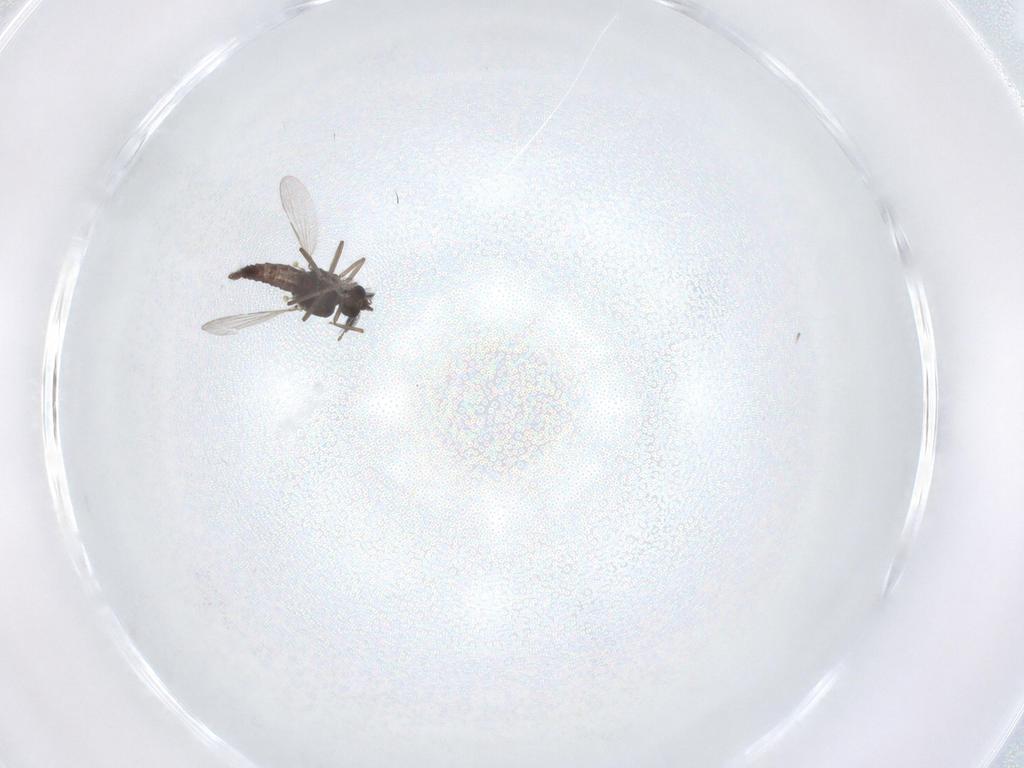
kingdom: Animalia
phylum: Arthropoda
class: Insecta
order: Diptera
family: Ceratopogonidae
